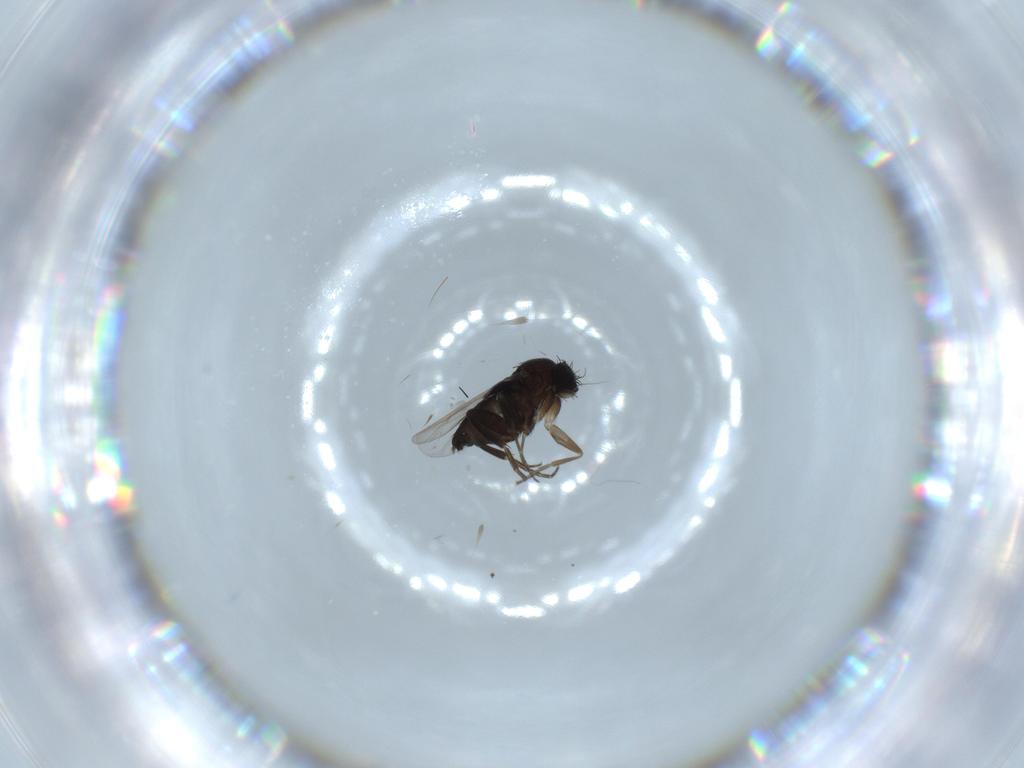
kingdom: Animalia
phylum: Arthropoda
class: Insecta
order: Diptera
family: Phoridae
